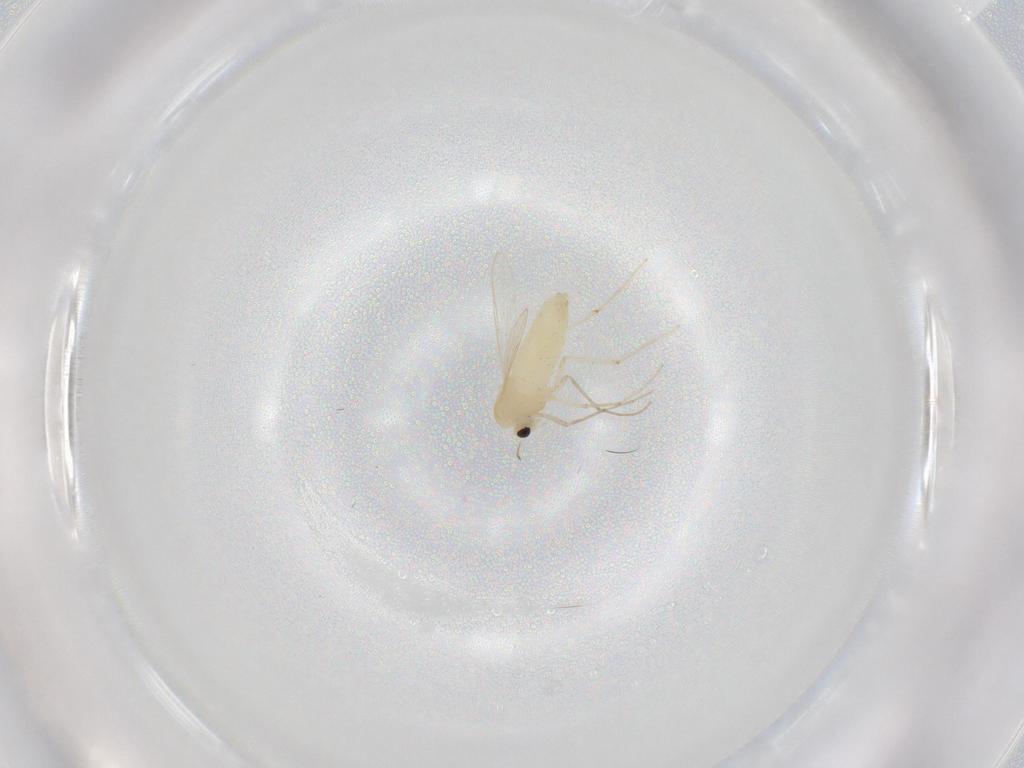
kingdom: Animalia
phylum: Arthropoda
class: Insecta
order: Diptera
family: Chironomidae
